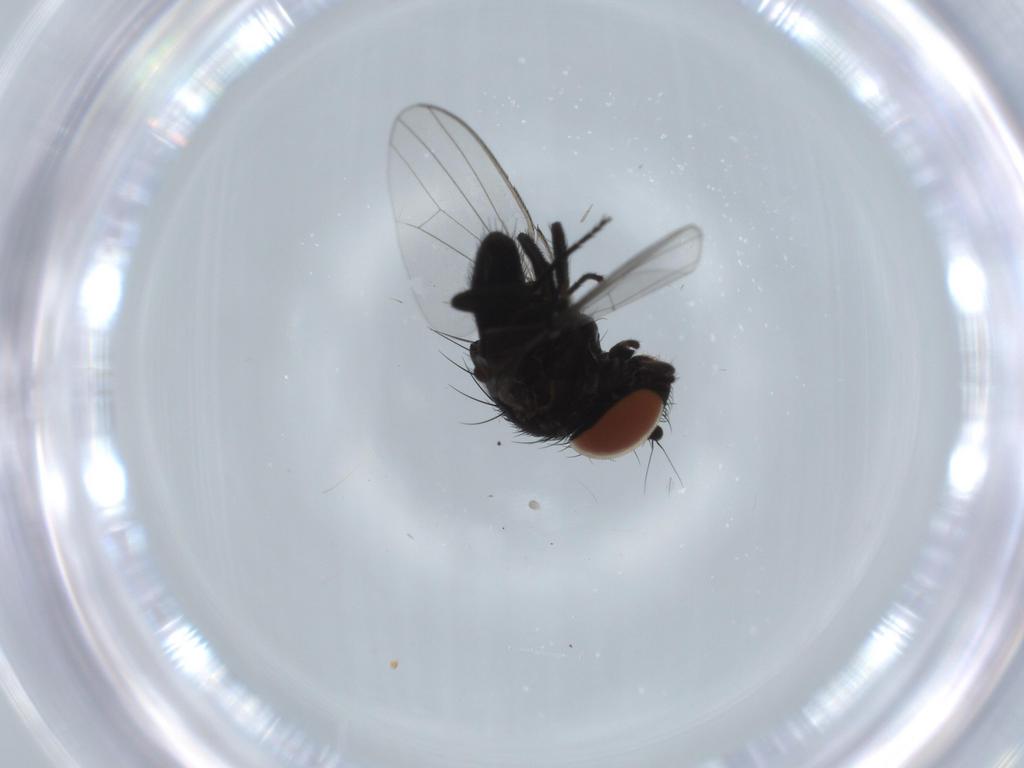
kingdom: Animalia
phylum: Arthropoda
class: Insecta
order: Diptera
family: Milichiidae
